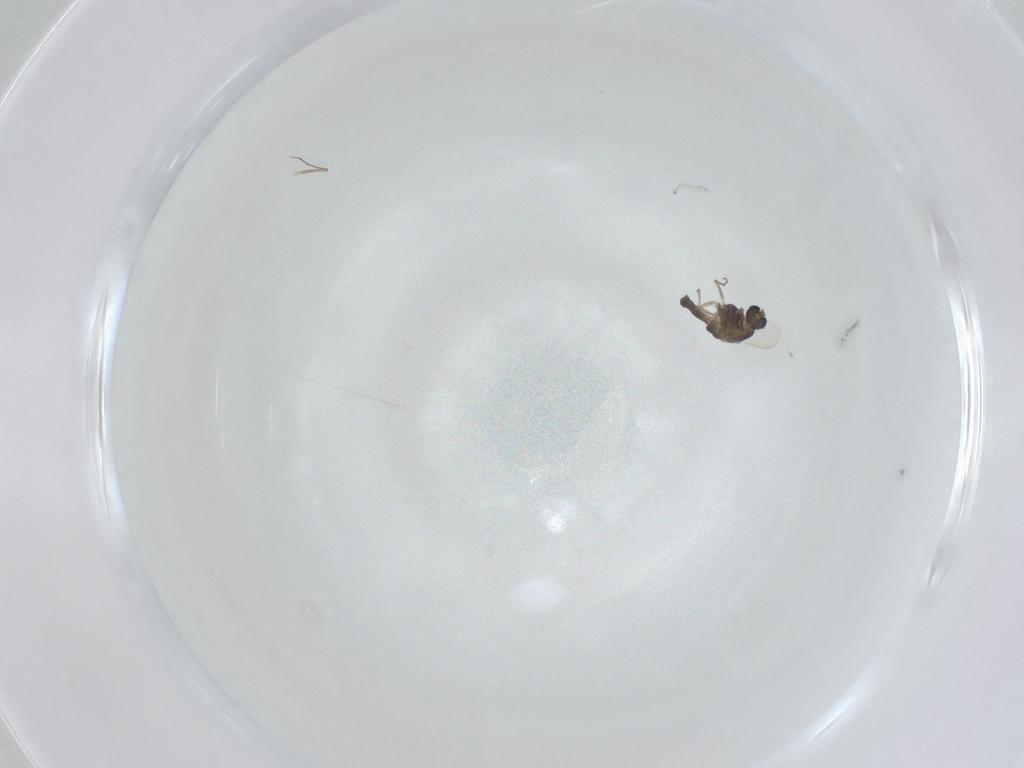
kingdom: Animalia
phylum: Arthropoda
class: Insecta
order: Diptera
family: Chironomidae
